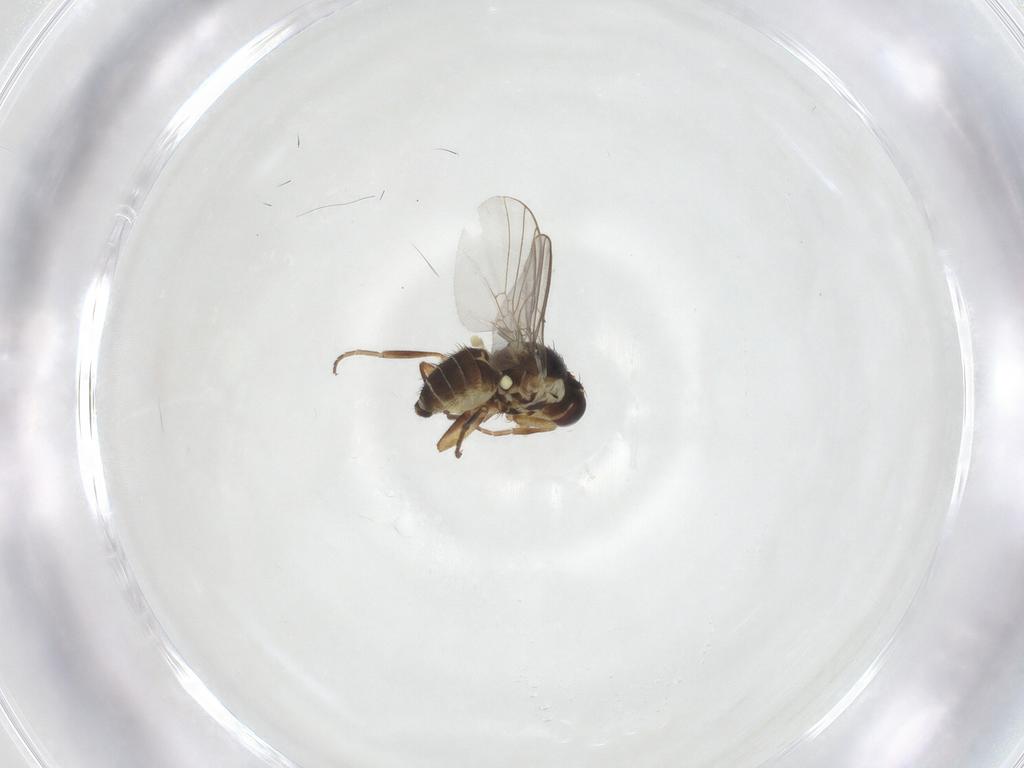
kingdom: Animalia
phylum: Arthropoda
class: Insecta
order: Diptera
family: Agromyzidae
